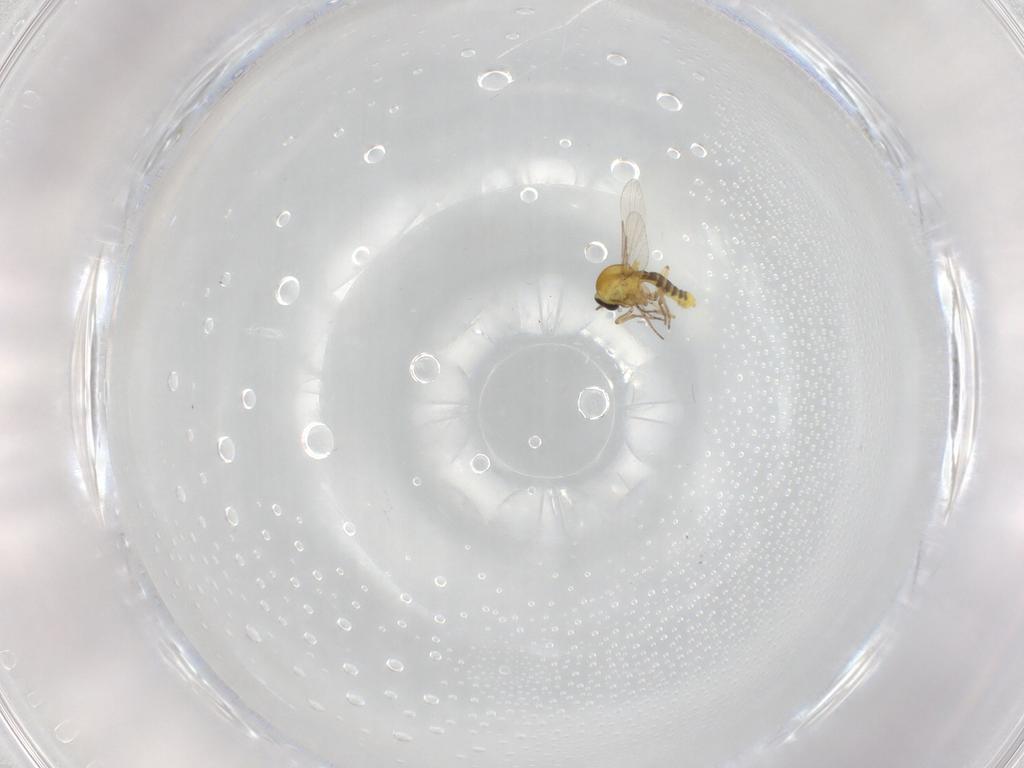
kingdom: Animalia
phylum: Arthropoda
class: Insecta
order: Diptera
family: Ceratopogonidae
